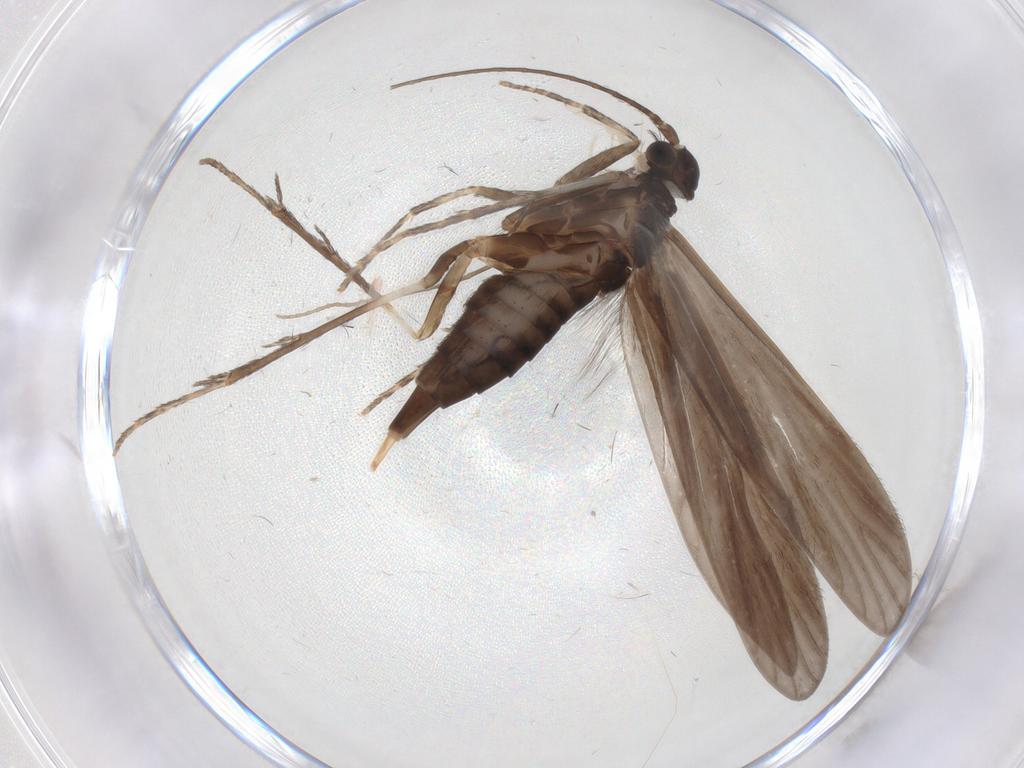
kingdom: Animalia
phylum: Arthropoda
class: Insecta
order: Trichoptera
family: Xiphocentronidae
